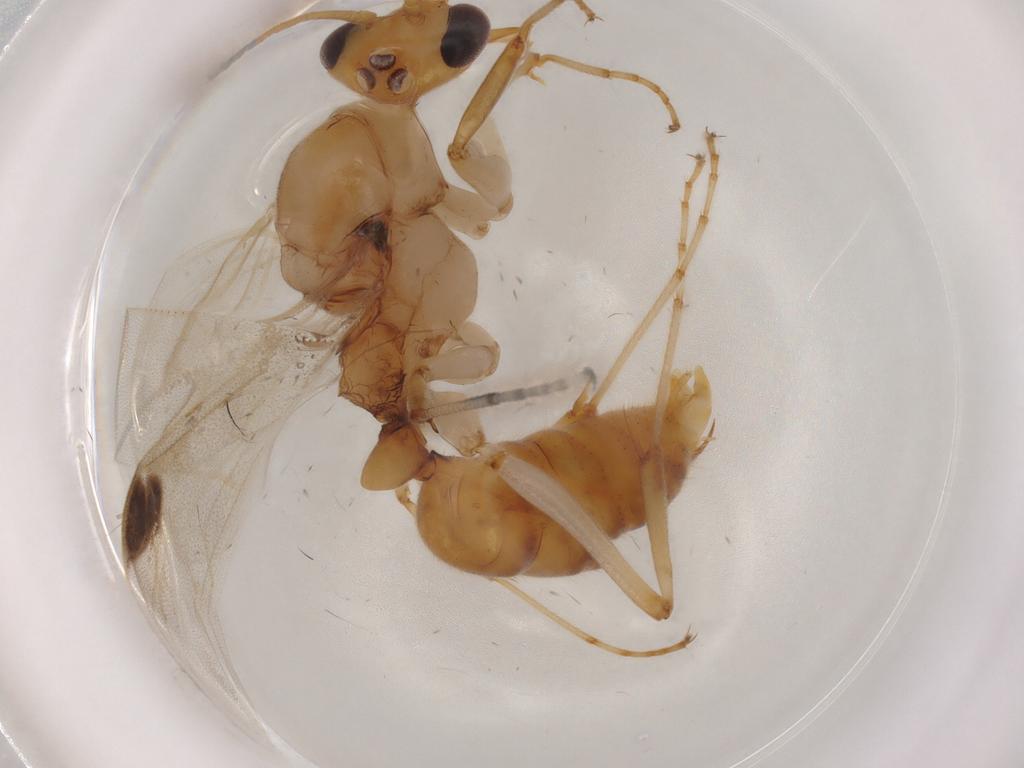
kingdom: Animalia
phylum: Arthropoda
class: Insecta
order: Hymenoptera
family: Formicidae
